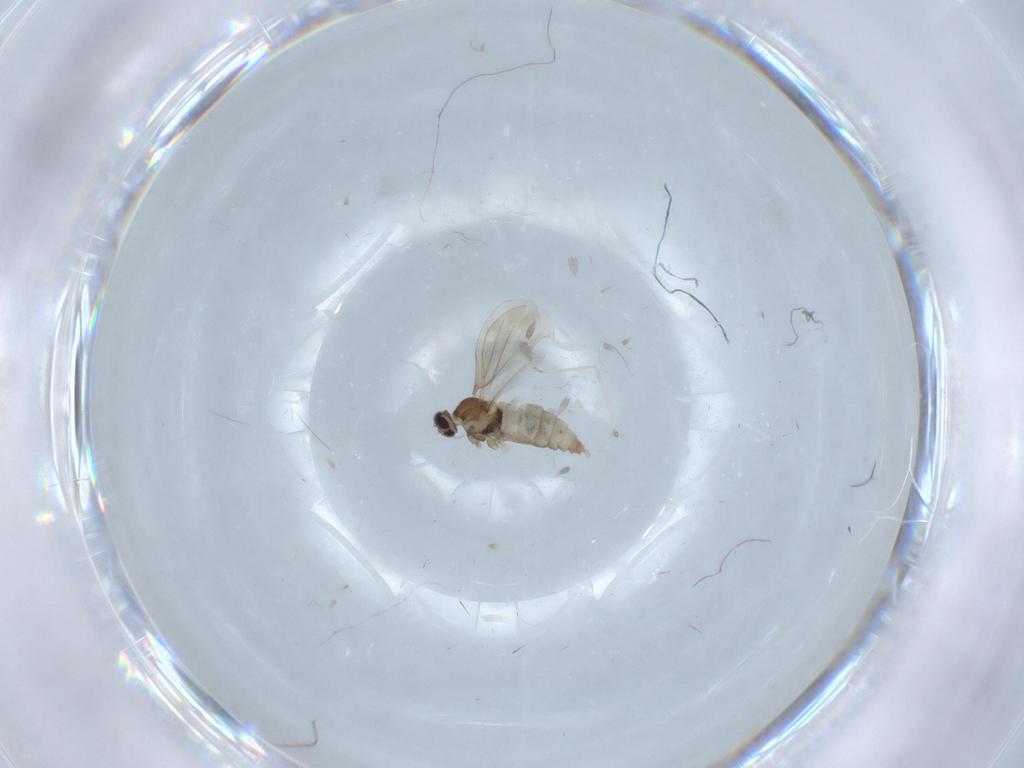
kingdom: Animalia
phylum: Arthropoda
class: Insecta
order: Diptera
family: Cecidomyiidae
